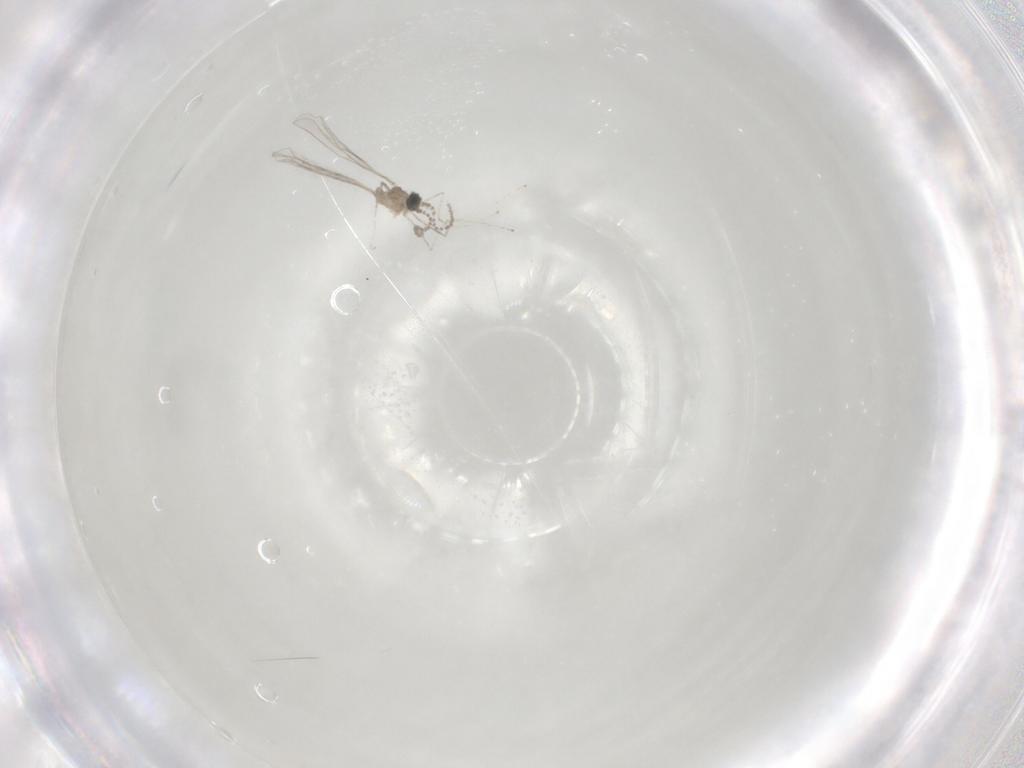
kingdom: Animalia
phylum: Arthropoda
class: Insecta
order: Diptera
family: Cecidomyiidae
